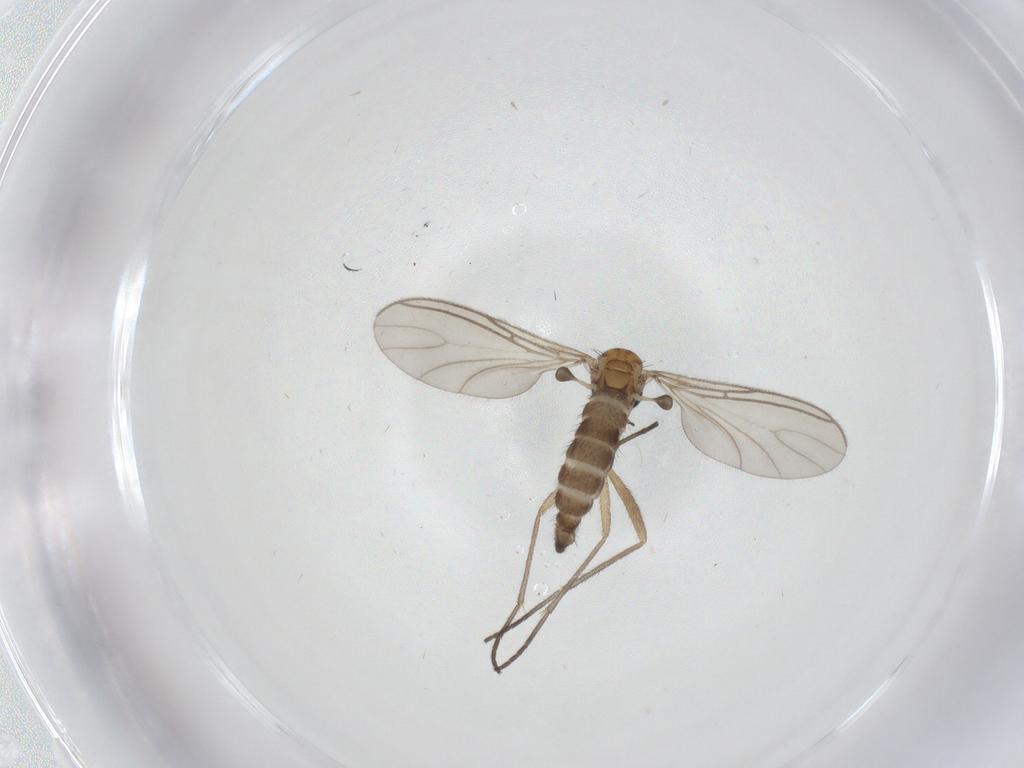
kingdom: Animalia
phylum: Arthropoda
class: Insecta
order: Diptera
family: Sciaridae
